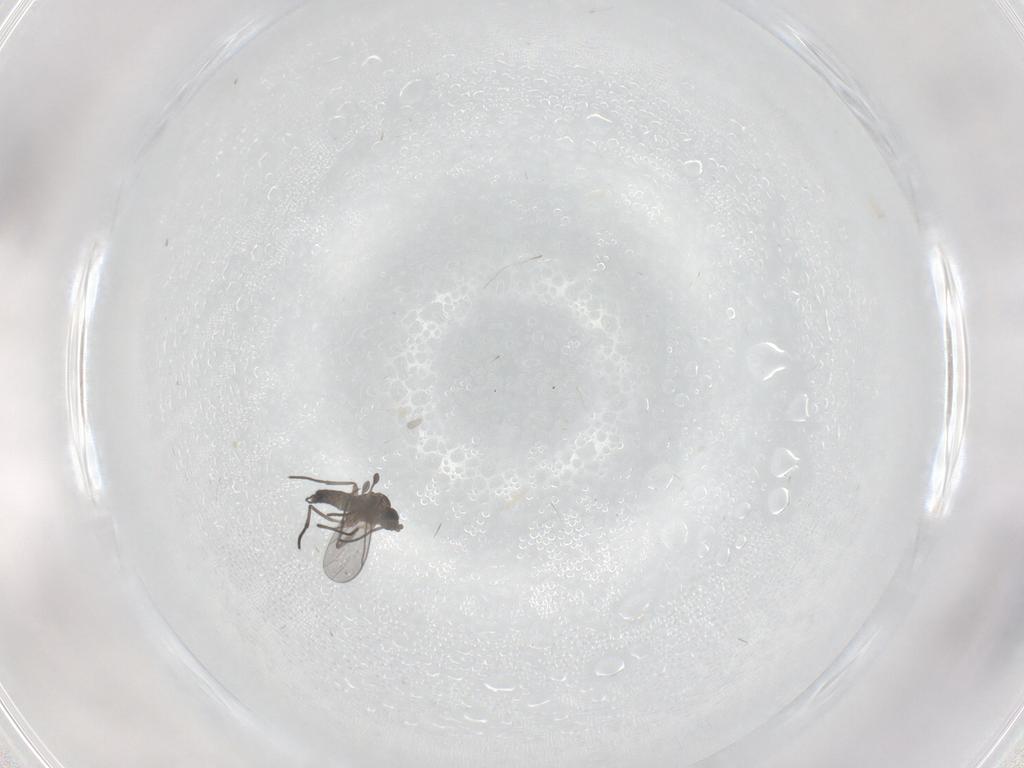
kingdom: Animalia
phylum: Arthropoda
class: Insecta
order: Diptera
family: Sciaridae
